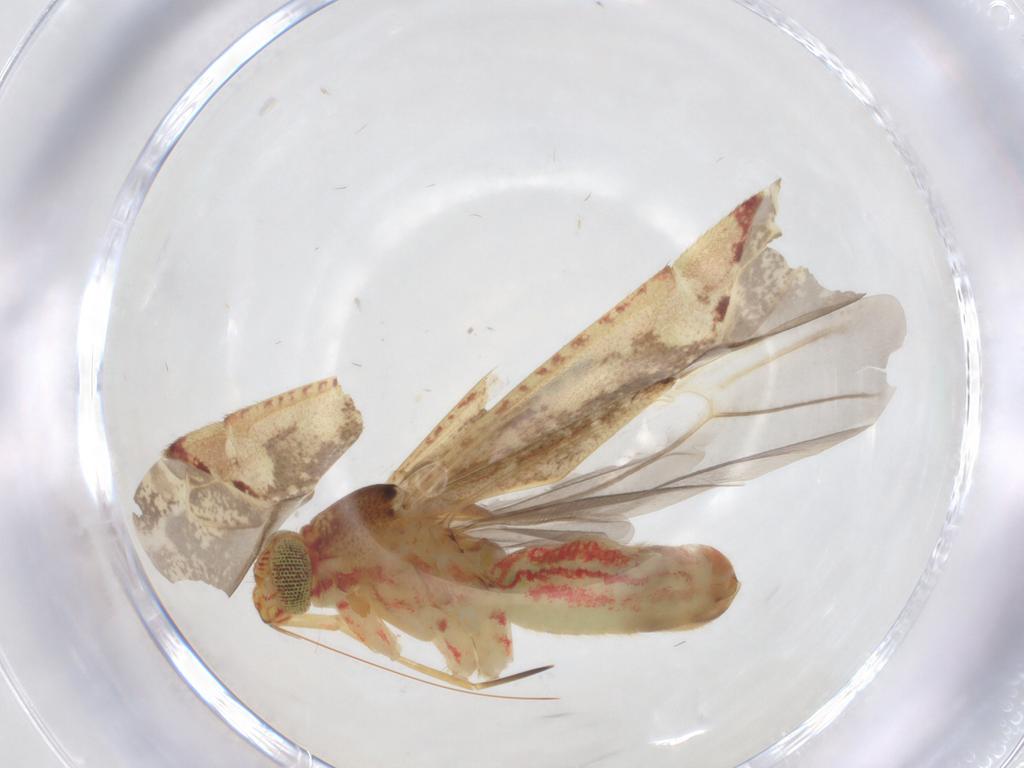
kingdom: Animalia
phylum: Arthropoda
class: Insecta
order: Hemiptera
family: Miridae
